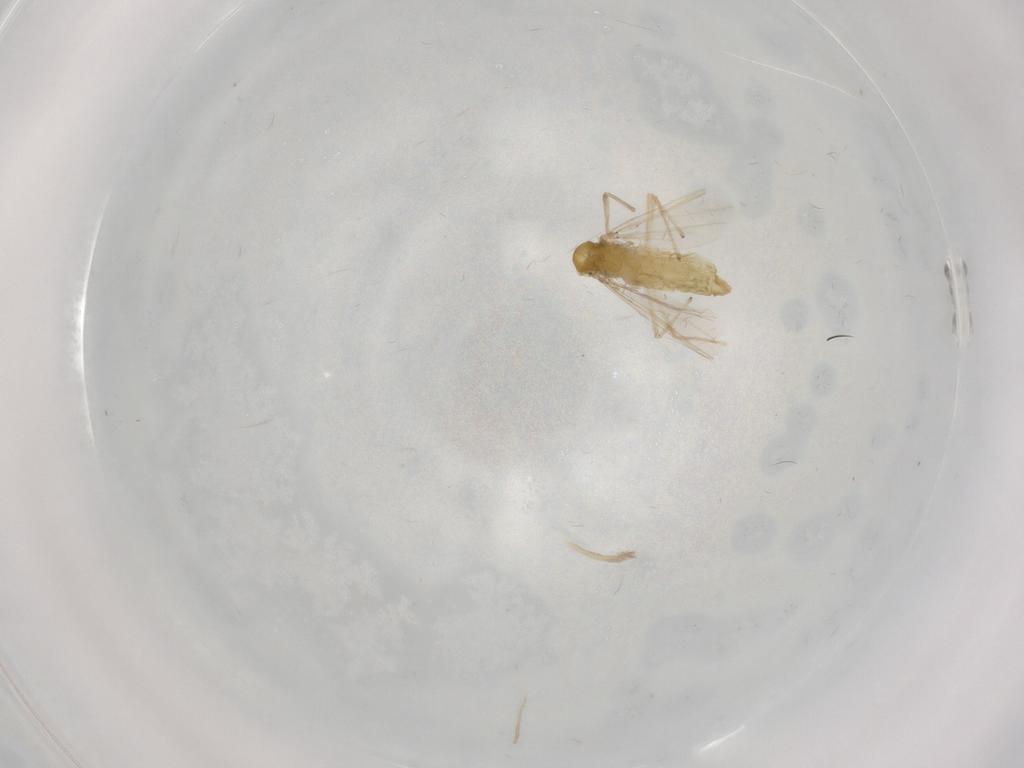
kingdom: Animalia
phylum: Arthropoda
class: Insecta
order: Diptera
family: Chironomidae
